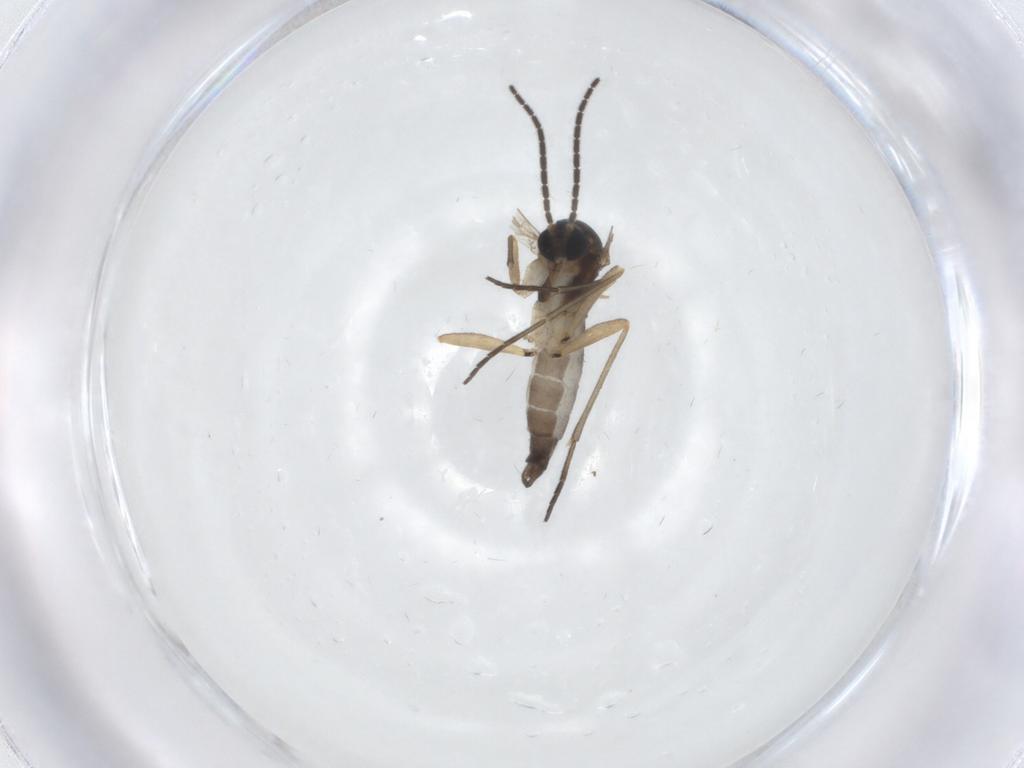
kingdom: Animalia
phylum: Arthropoda
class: Insecta
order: Diptera
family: Sciaridae
